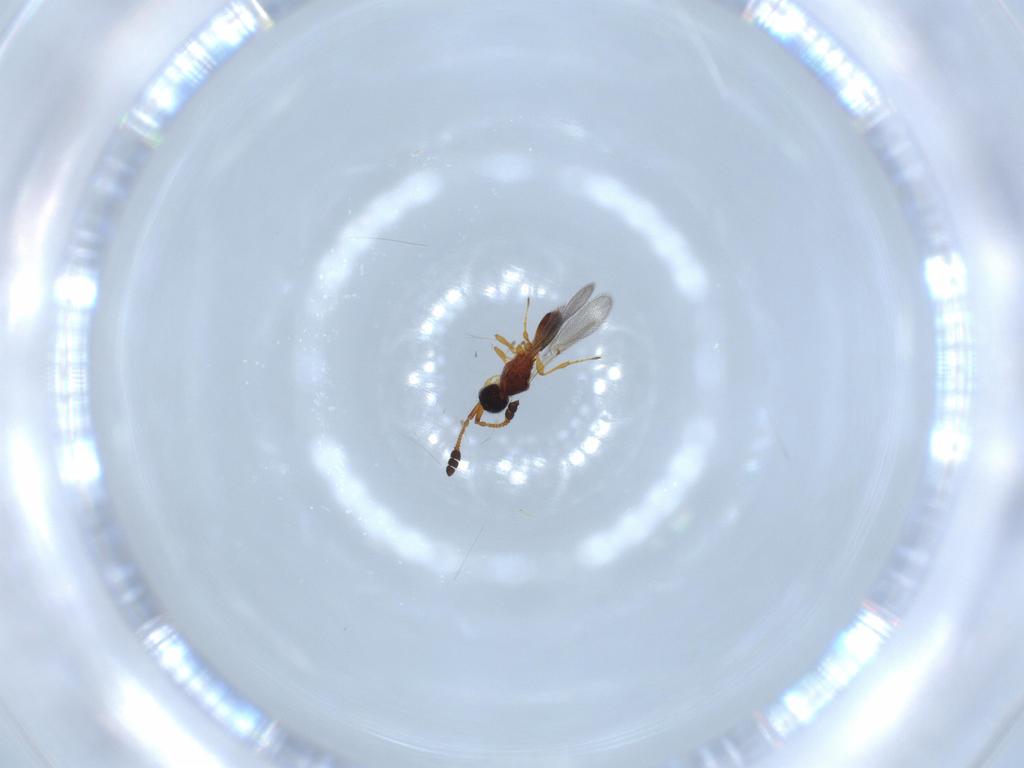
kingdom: Animalia
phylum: Arthropoda
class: Insecta
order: Hymenoptera
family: Diapriidae
